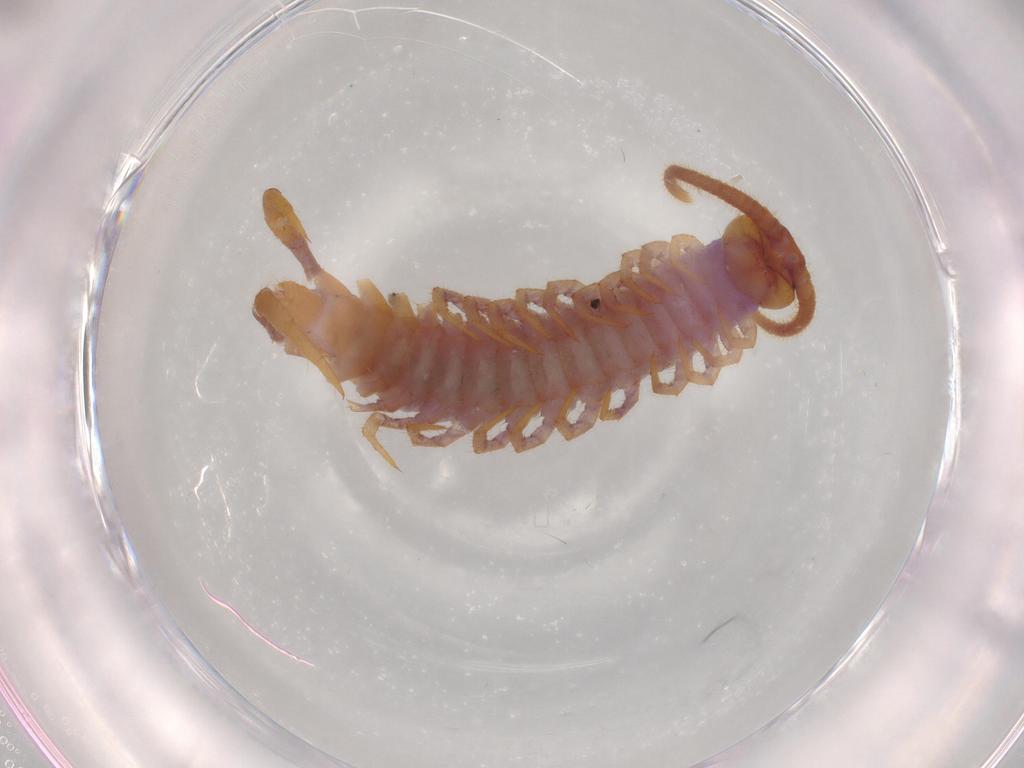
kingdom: Animalia
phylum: Arthropoda
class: Chilopoda
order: Lithobiomorpha
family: Lithobiidae
